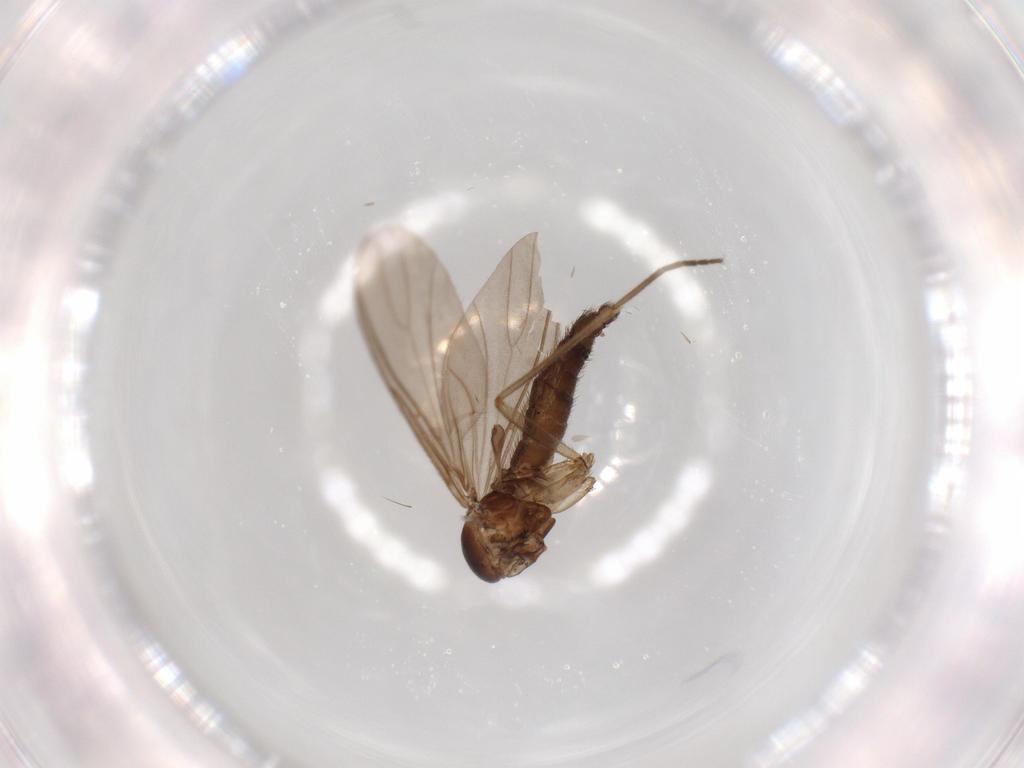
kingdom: Animalia
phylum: Arthropoda
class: Insecta
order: Diptera
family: Sciaridae
